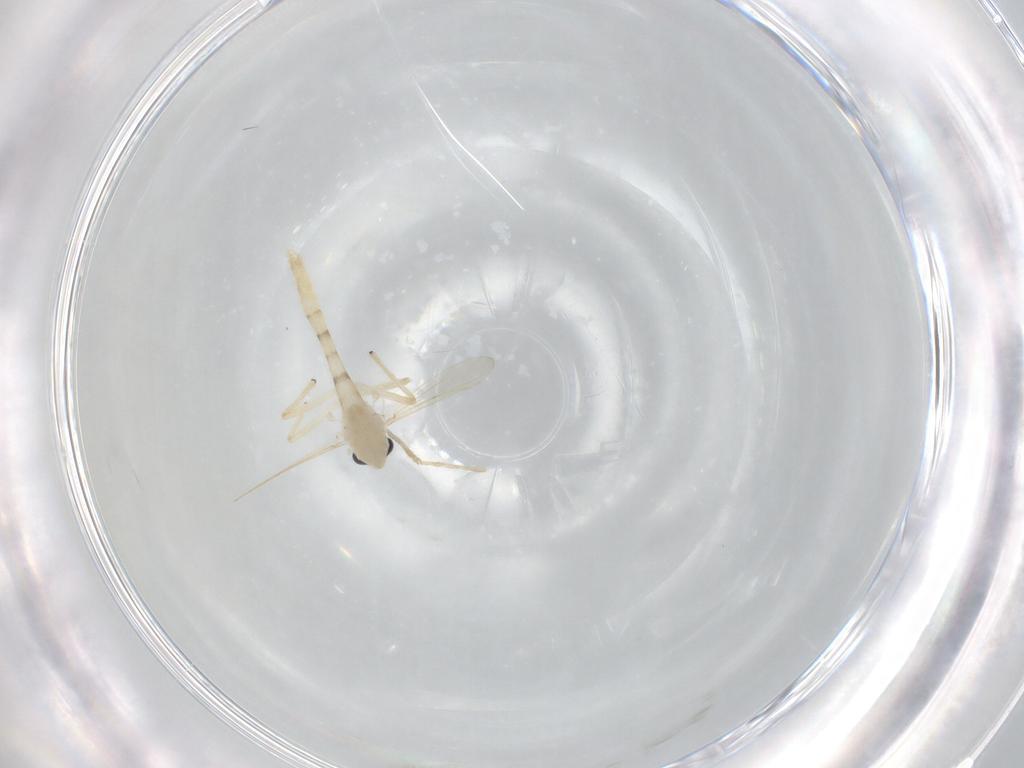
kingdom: Animalia
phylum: Arthropoda
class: Insecta
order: Diptera
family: Chironomidae
